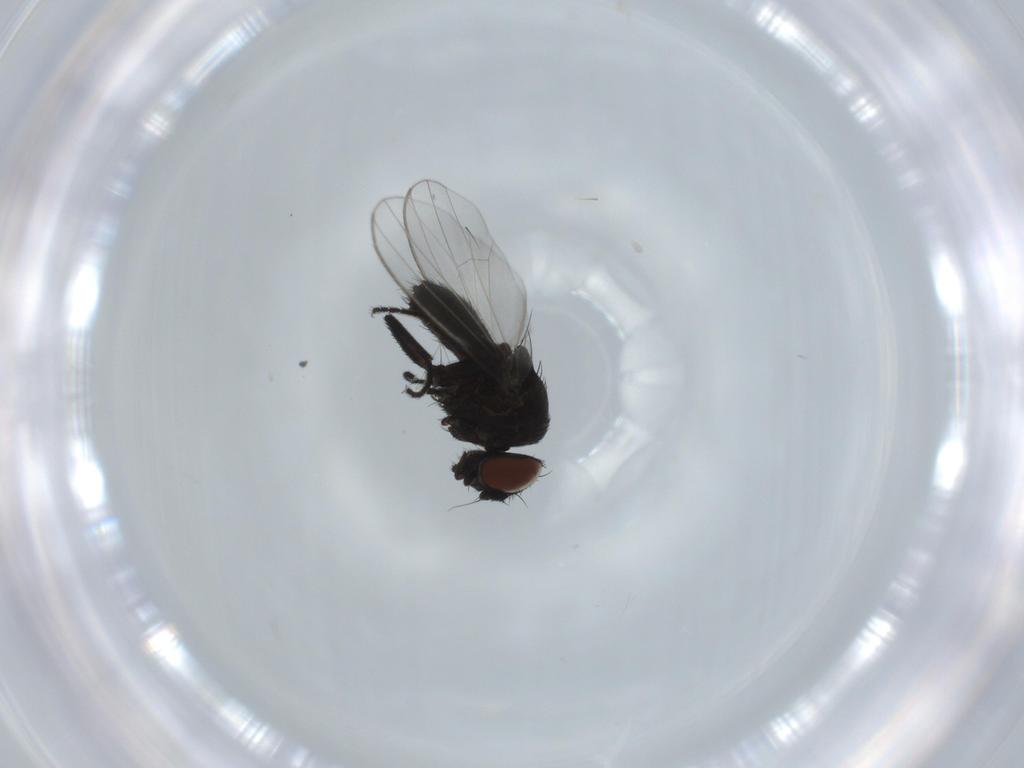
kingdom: Animalia
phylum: Arthropoda
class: Insecta
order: Diptera
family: Milichiidae
